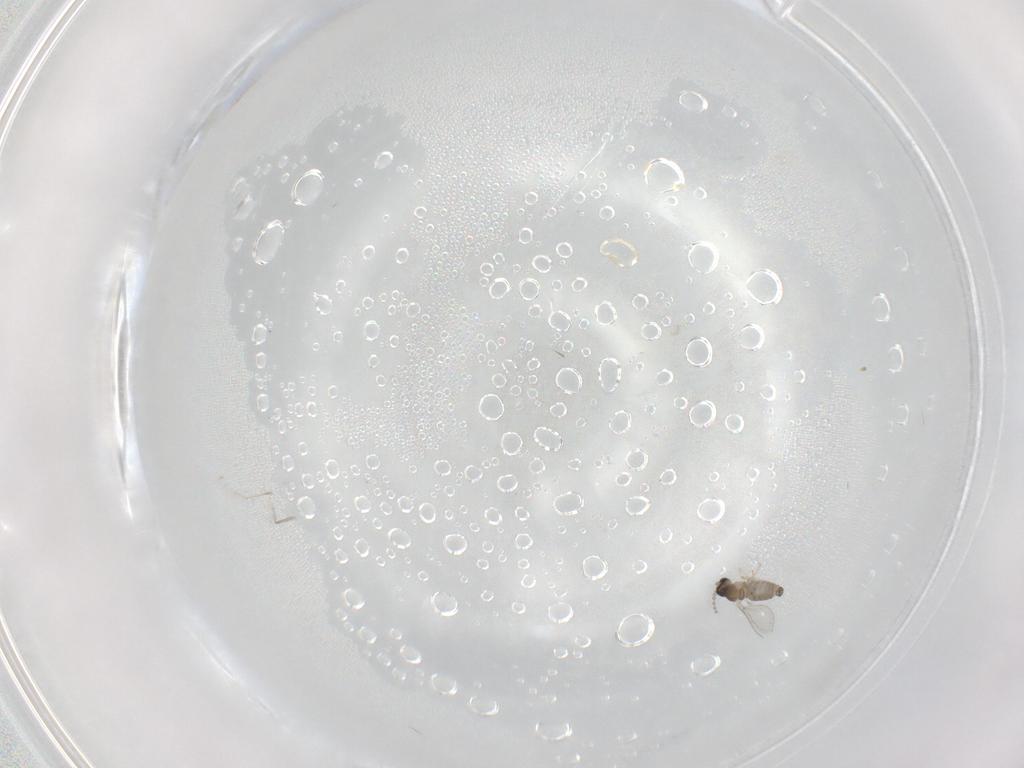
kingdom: Animalia
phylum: Arthropoda
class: Insecta
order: Diptera
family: Cecidomyiidae
